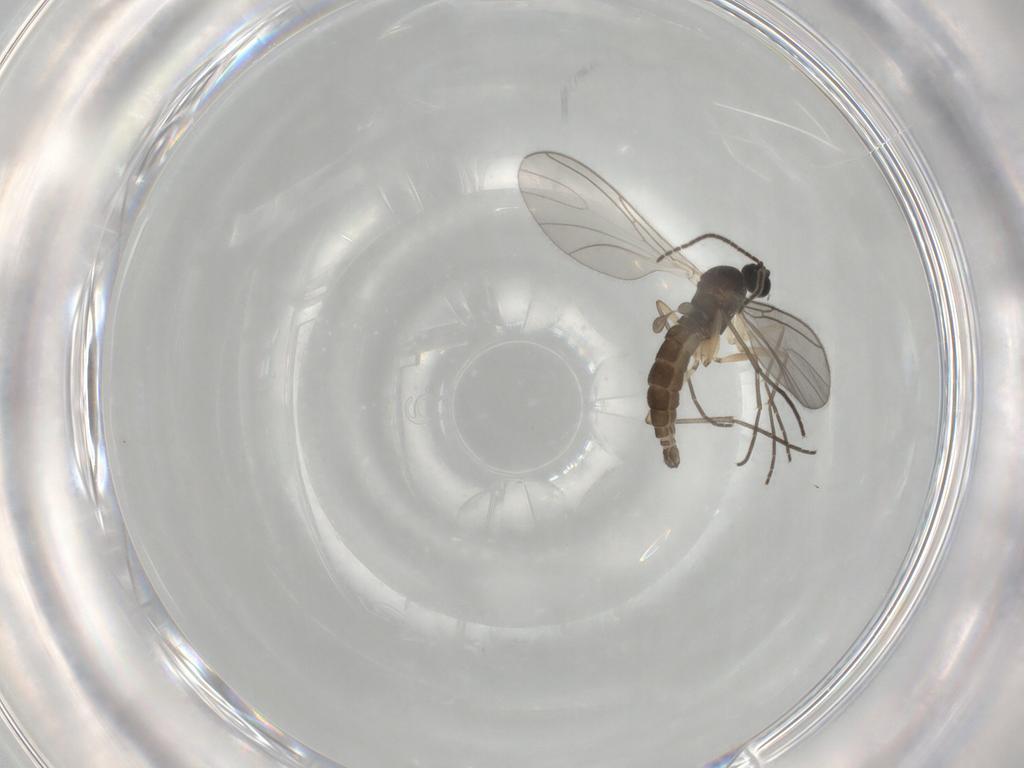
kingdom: Animalia
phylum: Arthropoda
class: Insecta
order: Diptera
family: Sciaridae
